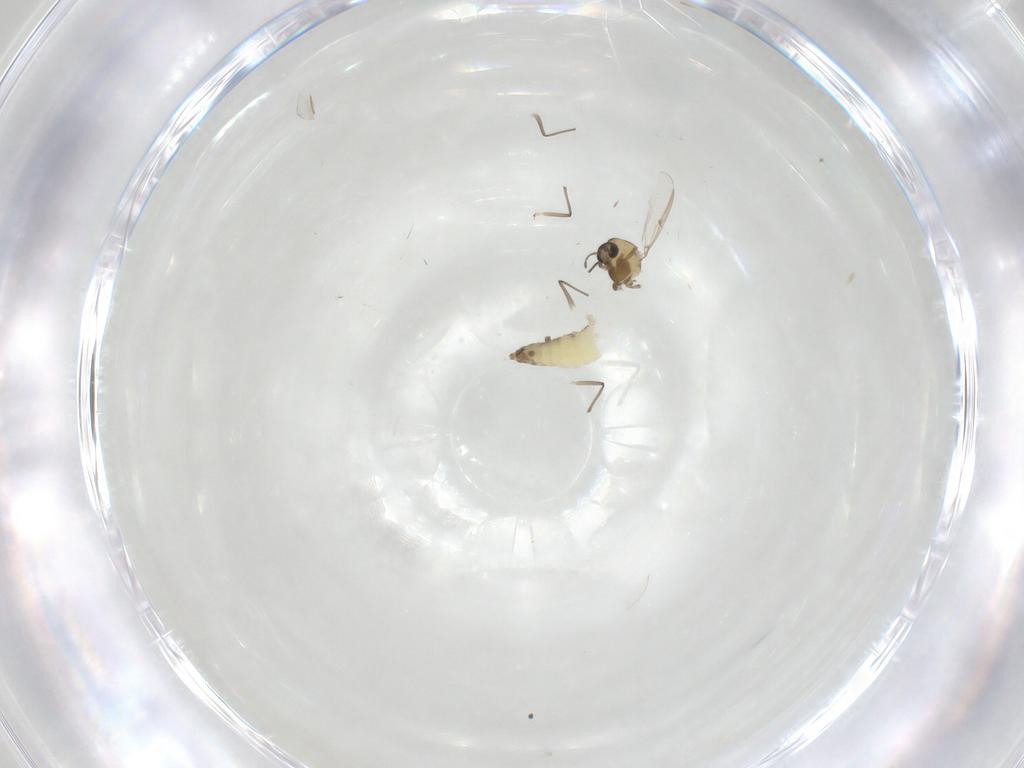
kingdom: Animalia
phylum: Arthropoda
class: Insecta
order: Diptera
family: Chironomidae
